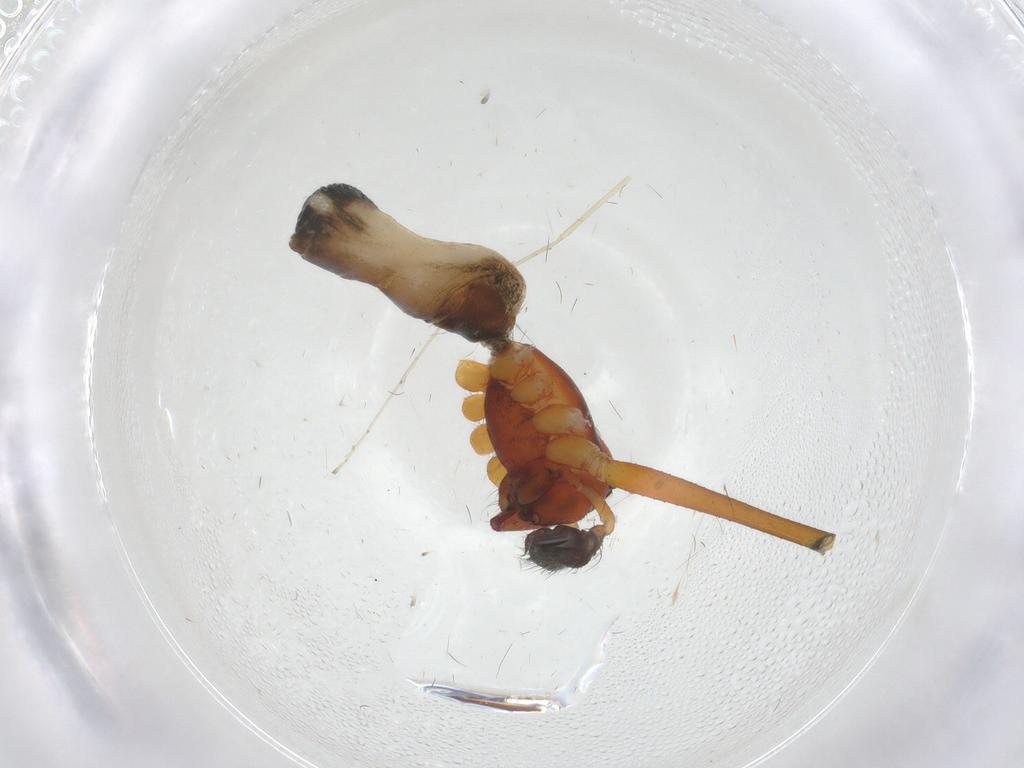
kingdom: Animalia
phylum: Arthropoda
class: Arachnida
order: Araneae
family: Linyphiidae
